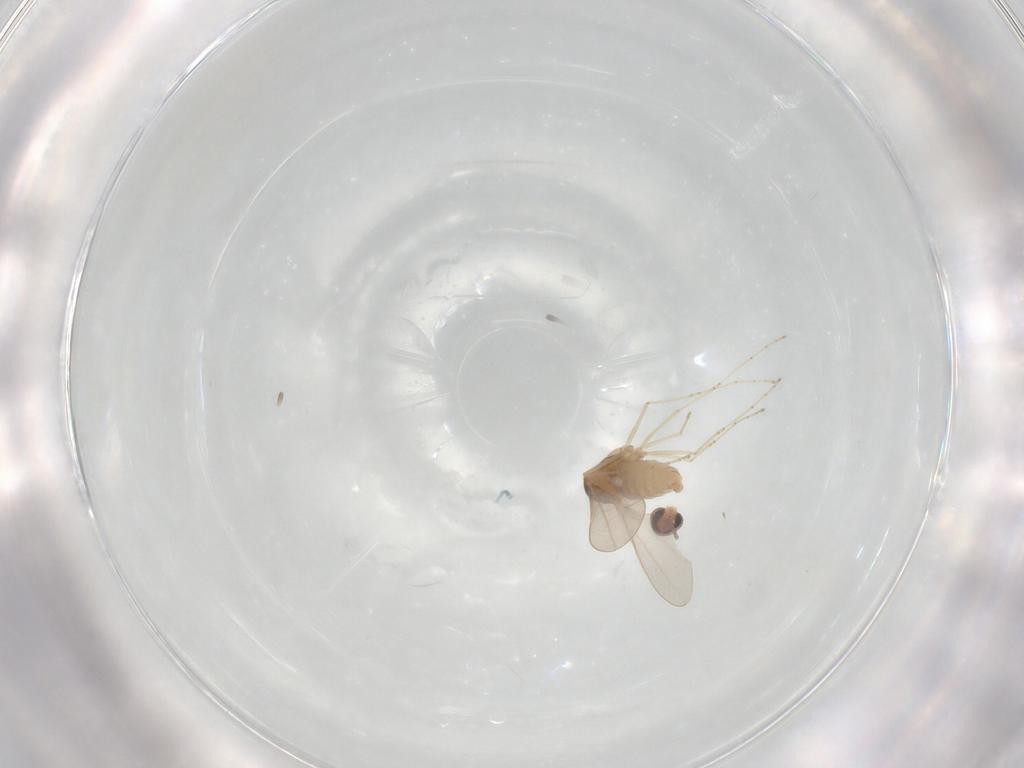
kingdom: Animalia
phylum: Arthropoda
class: Insecta
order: Diptera
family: Cecidomyiidae
